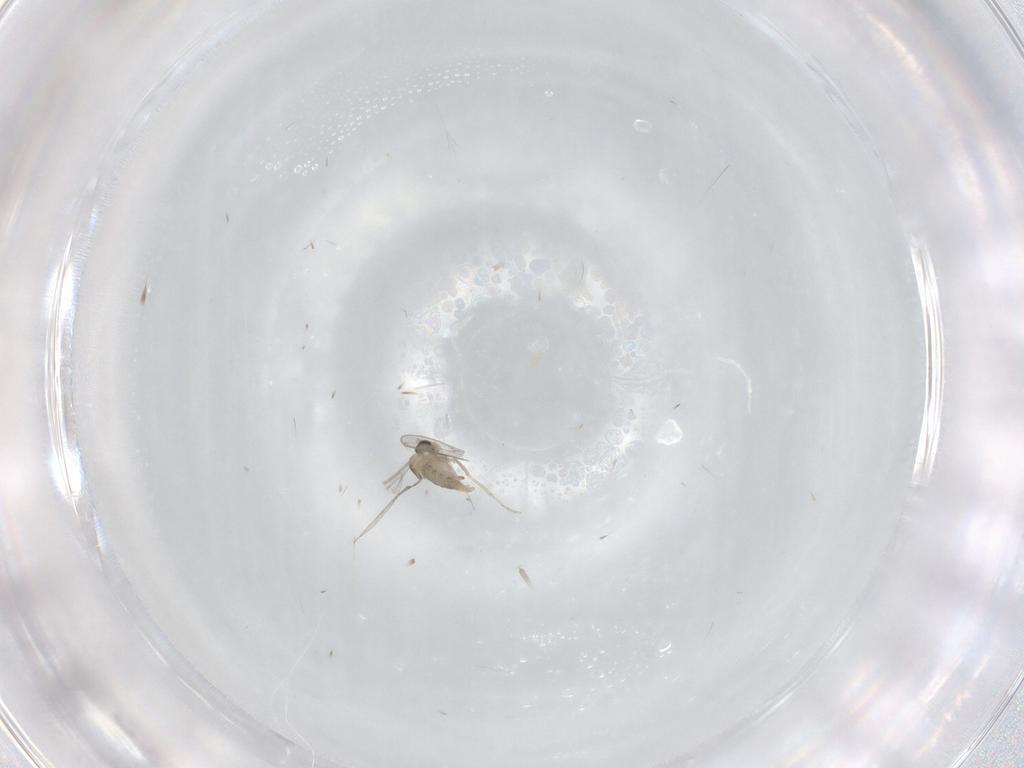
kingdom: Animalia
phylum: Arthropoda
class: Insecta
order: Diptera
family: Cecidomyiidae
